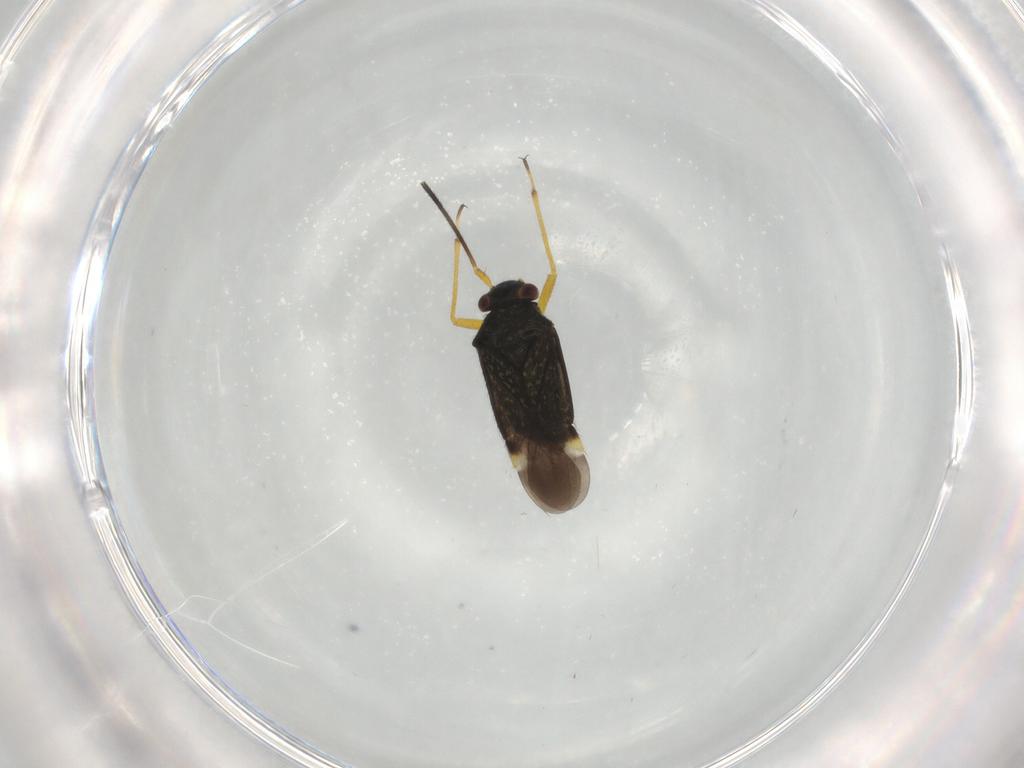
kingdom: Animalia
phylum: Arthropoda
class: Insecta
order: Hemiptera
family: Miridae
